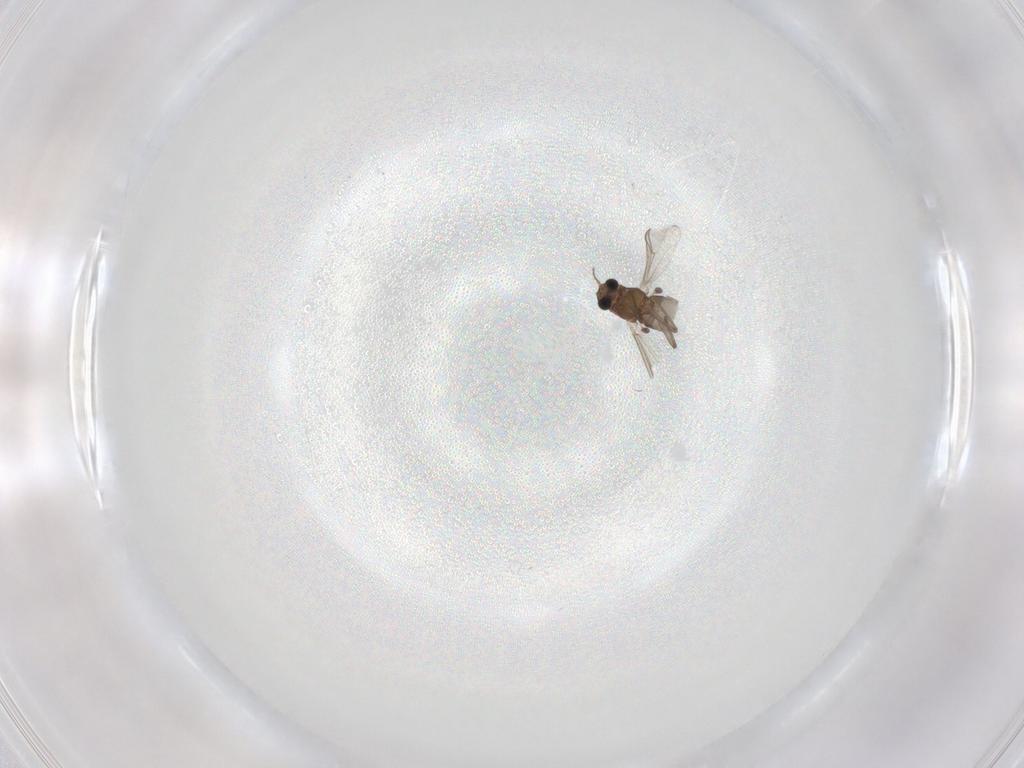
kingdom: Animalia
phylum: Arthropoda
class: Insecta
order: Diptera
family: Chironomidae
